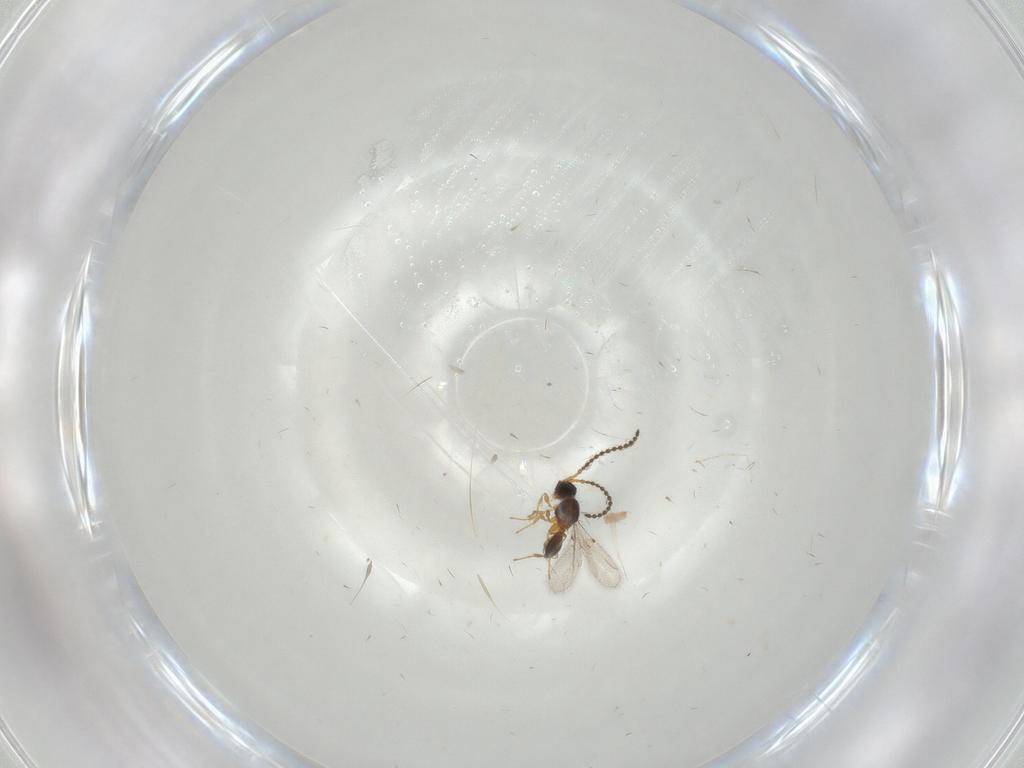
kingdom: Animalia
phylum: Arthropoda
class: Insecta
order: Hymenoptera
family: Diapriidae
